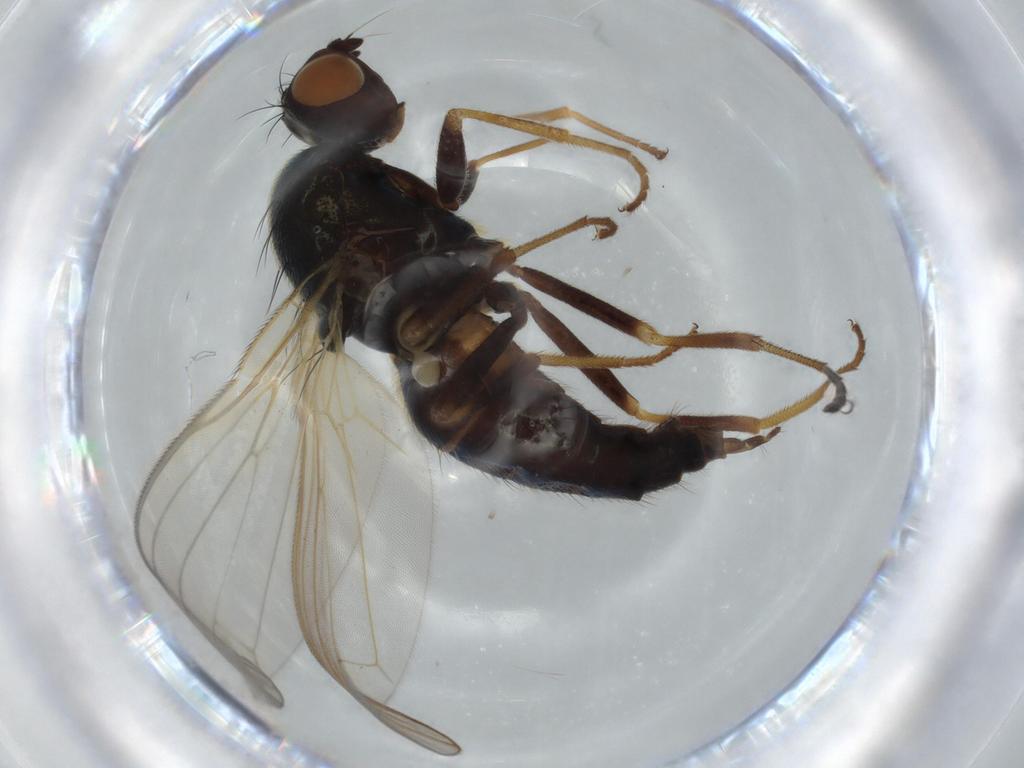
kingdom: Animalia
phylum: Arthropoda
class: Insecta
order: Diptera
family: Psilidae
